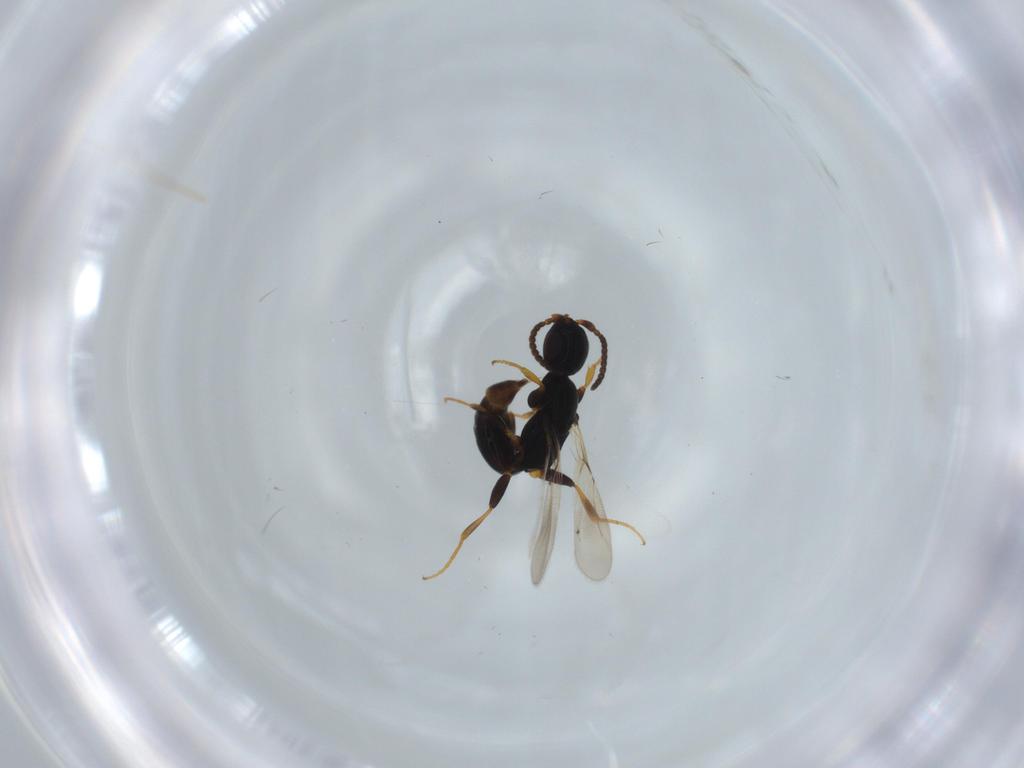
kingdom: Animalia
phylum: Arthropoda
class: Insecta
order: Hymenoptera
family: Bethylidae
